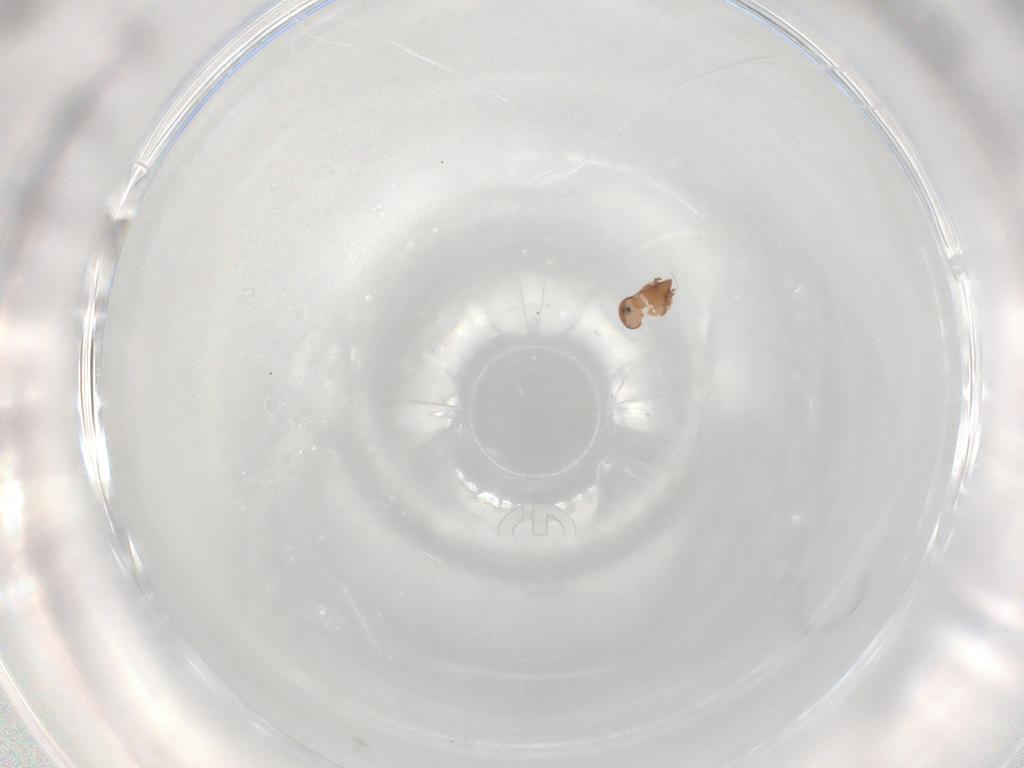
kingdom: Animalia
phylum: Arthropoda
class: Arachnida
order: Sarcoptiformes
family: Scheloribatidae
